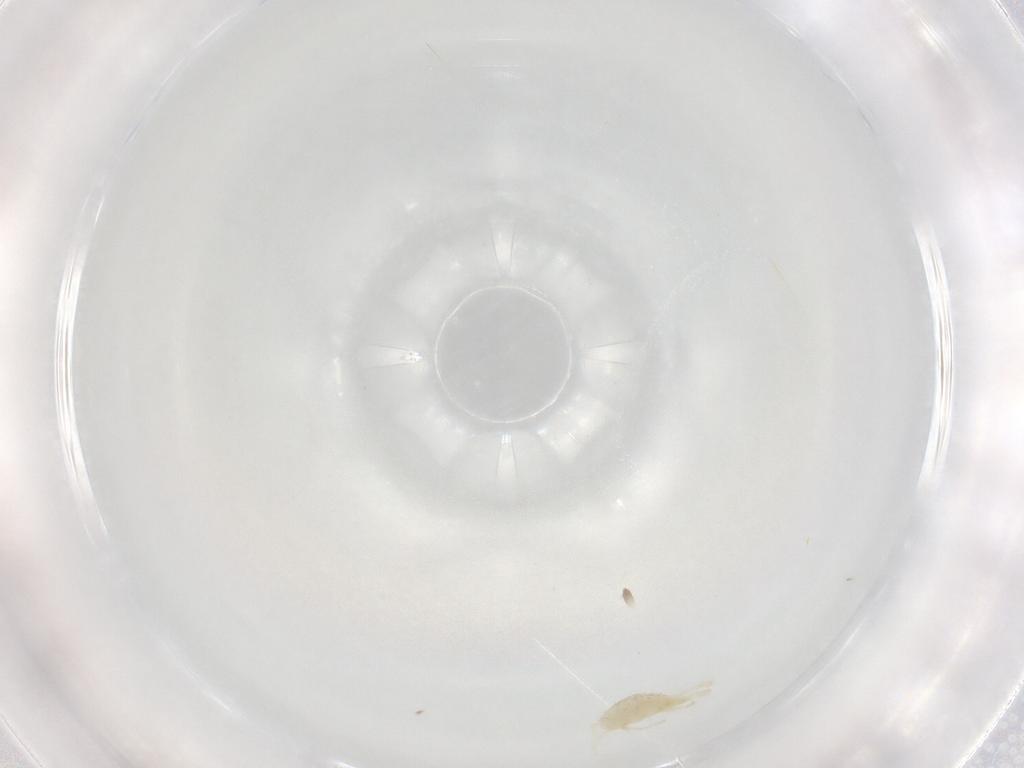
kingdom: Animalia
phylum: Arthropoda
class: Arachnida
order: Trombidiformes
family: Erythraeidae
